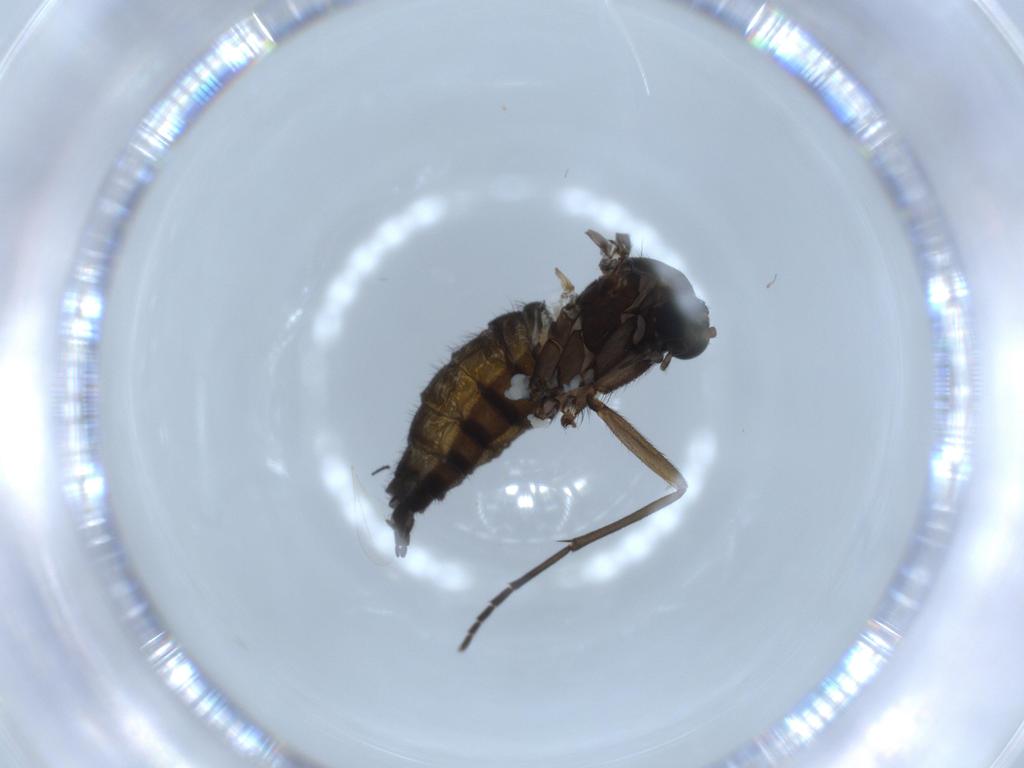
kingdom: Animalia
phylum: Arthropoda
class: Insecta
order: Diptera
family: Sciaridae
